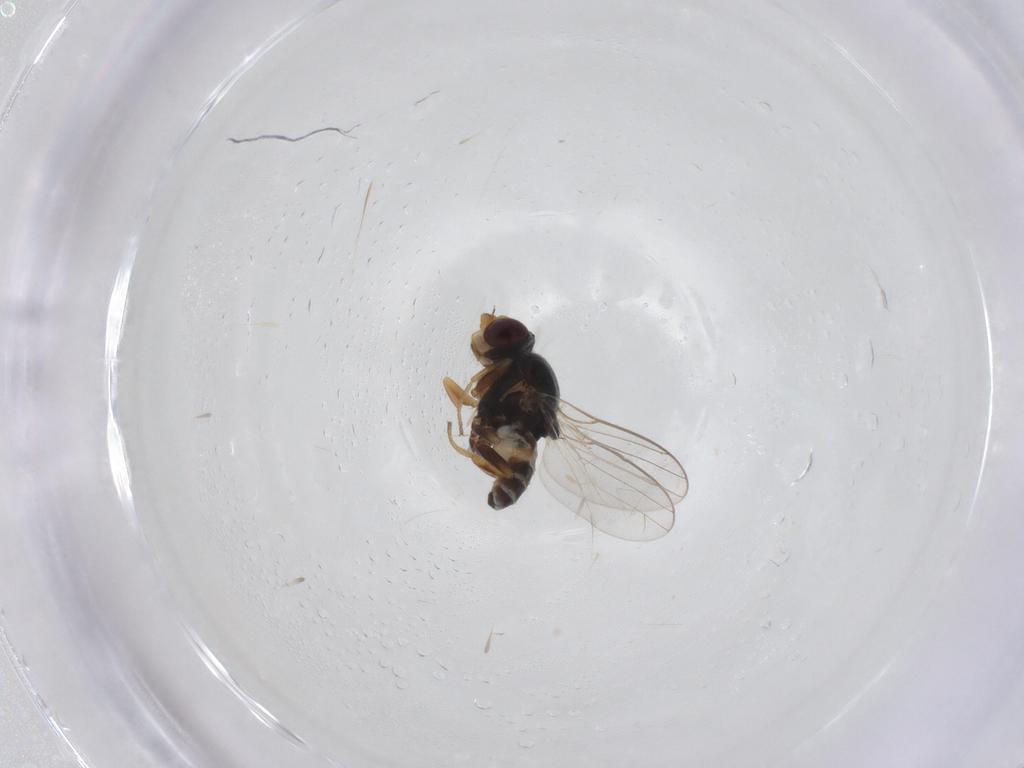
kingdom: Animalia
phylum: Arthropoda
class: Insecta
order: Diptera
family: Chloropidae
